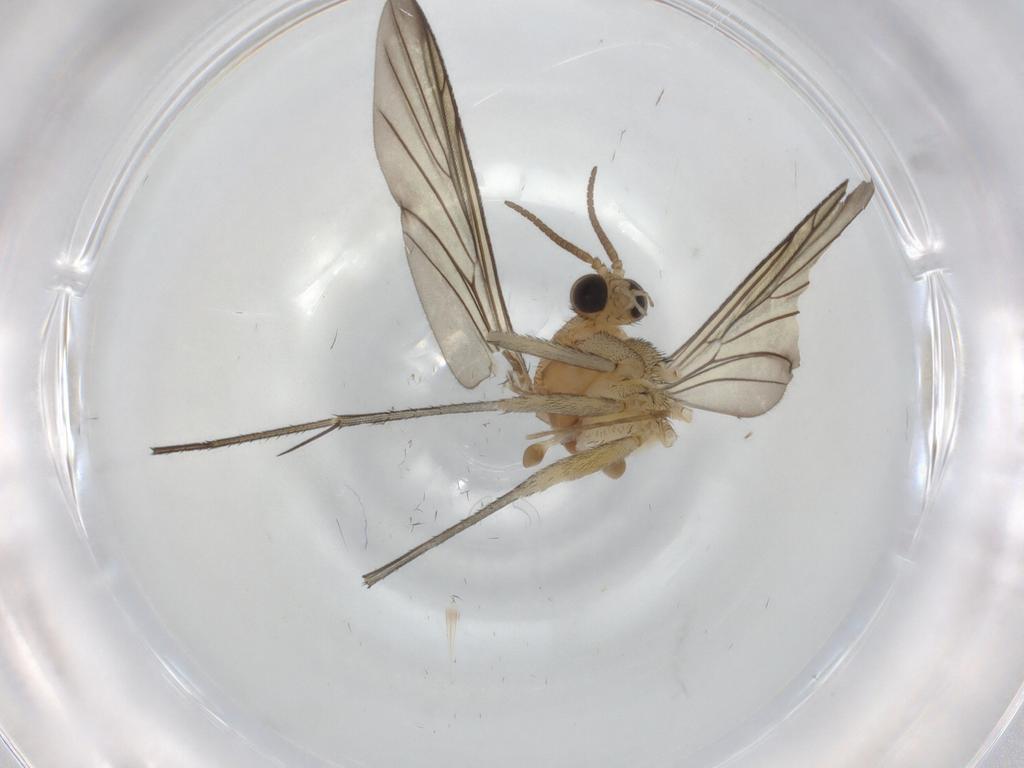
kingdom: Animalia
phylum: Arthropoda
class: Insecta
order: Diptera
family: Keroplatidae
